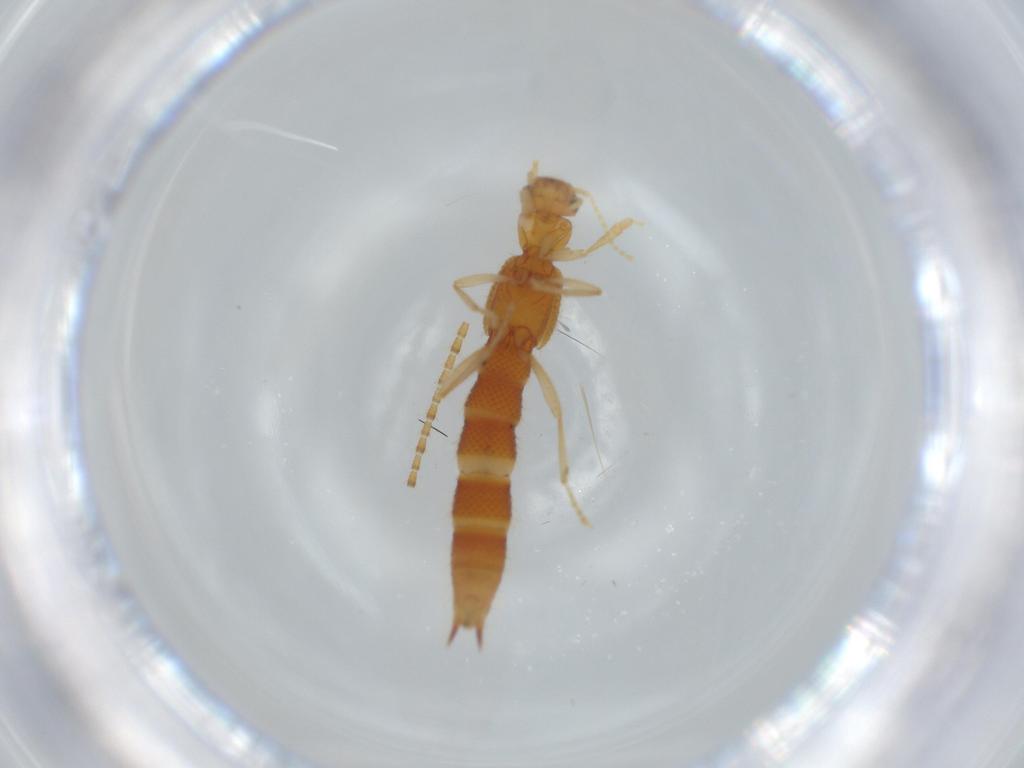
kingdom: Animalia
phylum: Arthropoda
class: Insecta
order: Coleoptera
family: Staphylinidae
